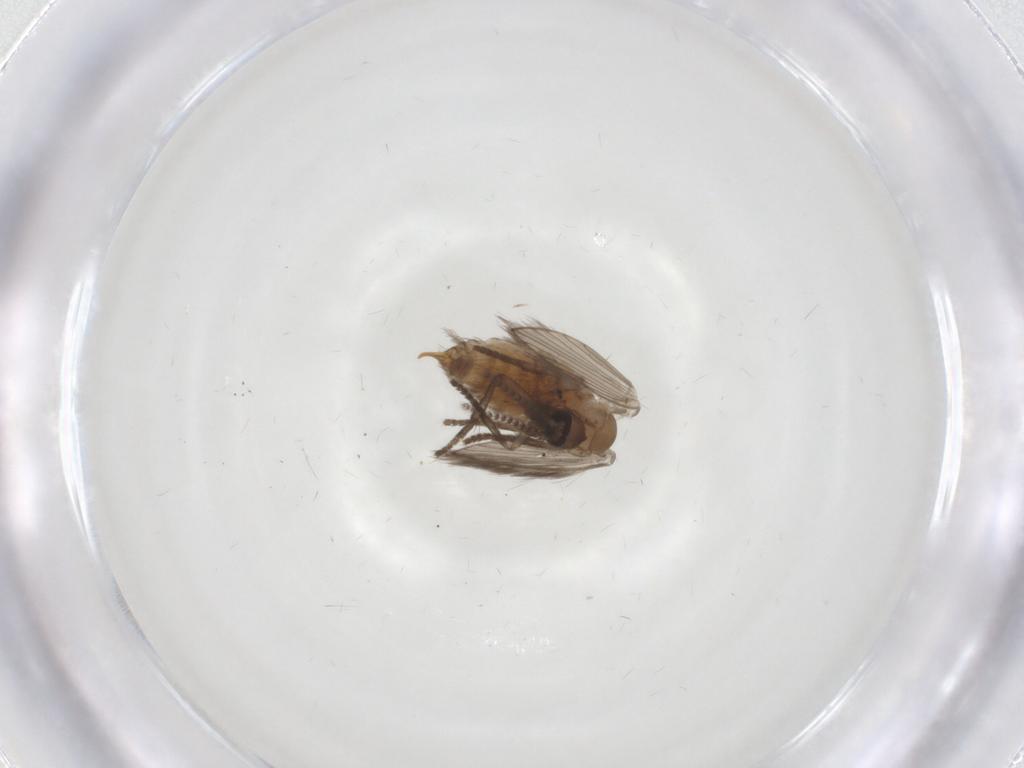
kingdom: Animalia
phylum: Arthropoda
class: Insecta
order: Diptera
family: Psychodidae
